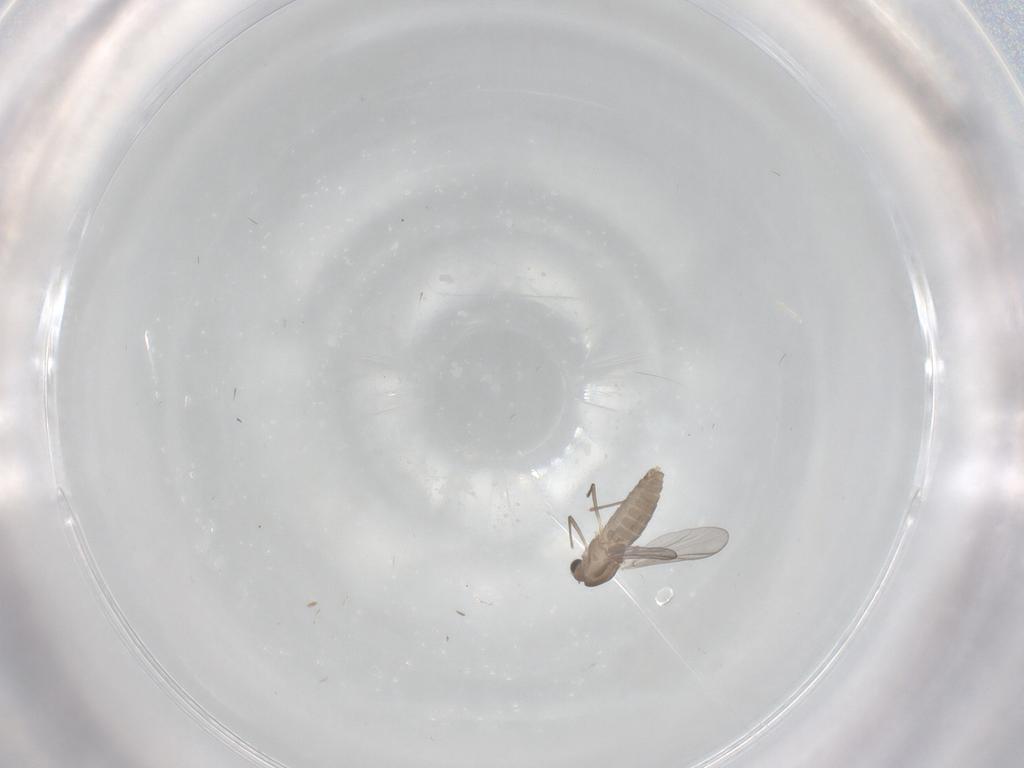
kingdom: Animalia
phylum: Arthropoda
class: Insecta
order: Diptera
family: Chironomidae
